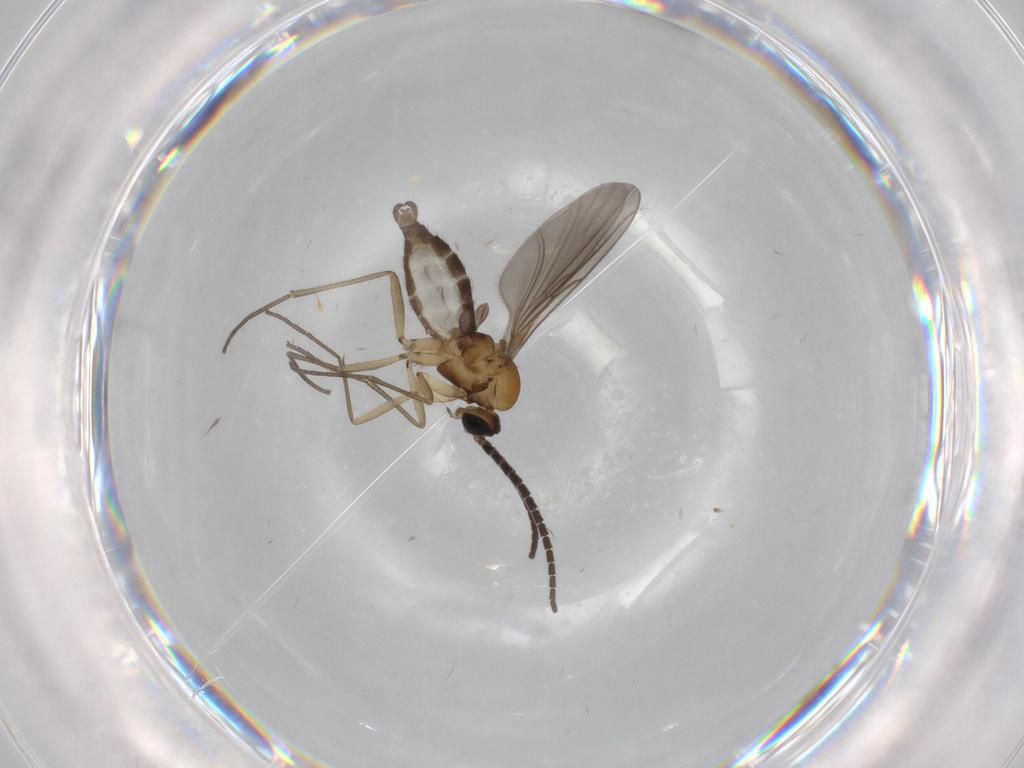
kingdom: Animalia
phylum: Arthropoda
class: Insecta
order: Diptera
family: Sciaridae
